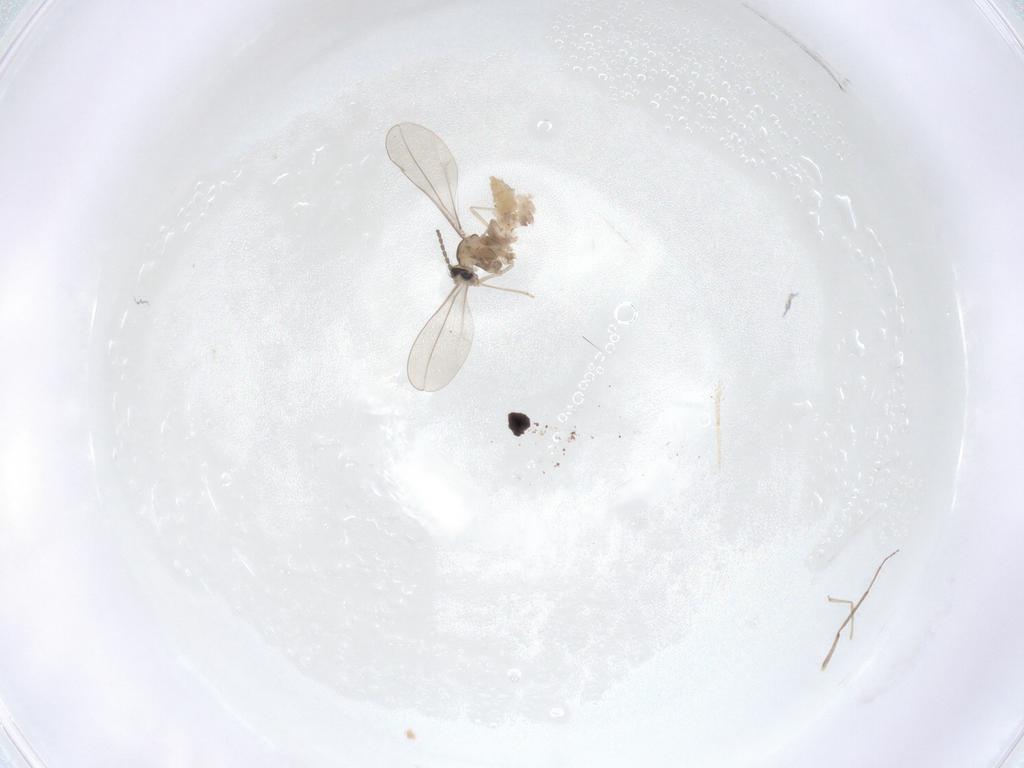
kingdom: Animalia
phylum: Arthropoda
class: Insecta
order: Diptera
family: Cecidomyiidae
